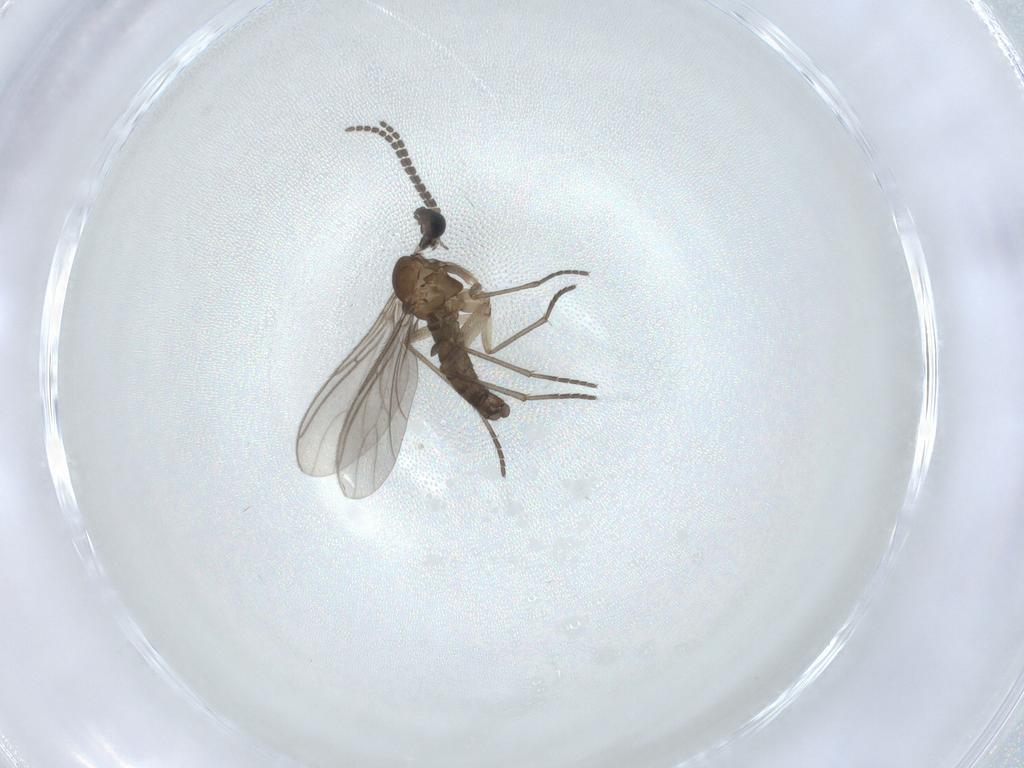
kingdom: Animalia
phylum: Arthropoda
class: Insecta
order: Diptera
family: Sciaridae
